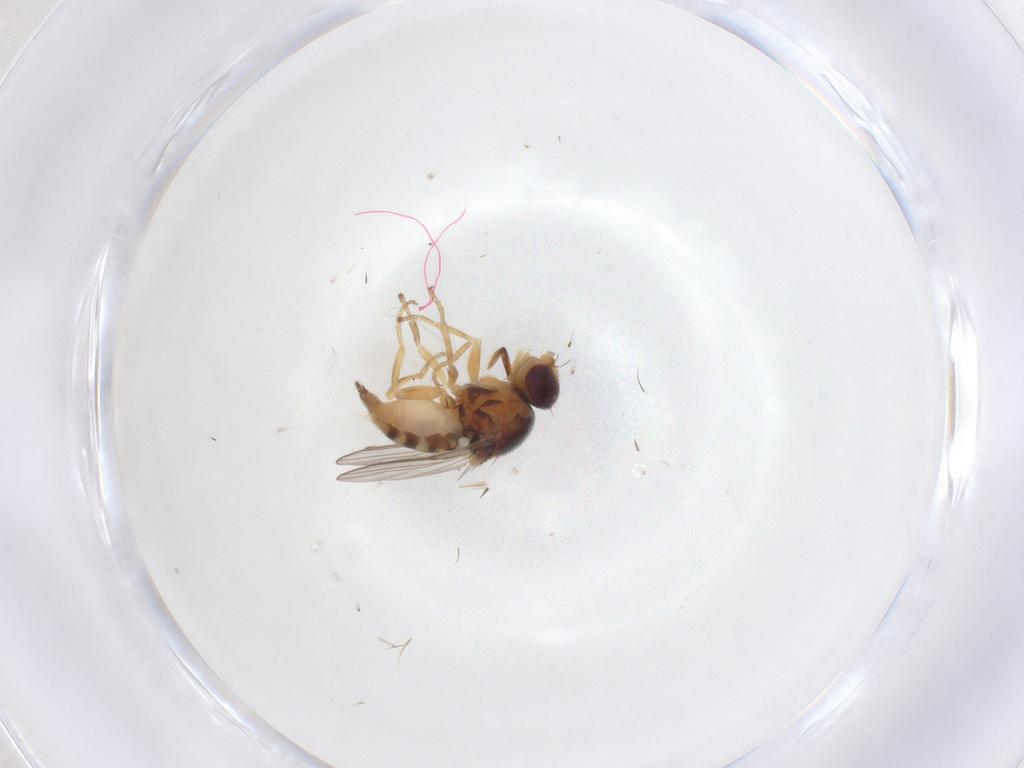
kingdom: Animalia
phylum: Arthropoda
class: Insecta
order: Diptera
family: Chloropidae
